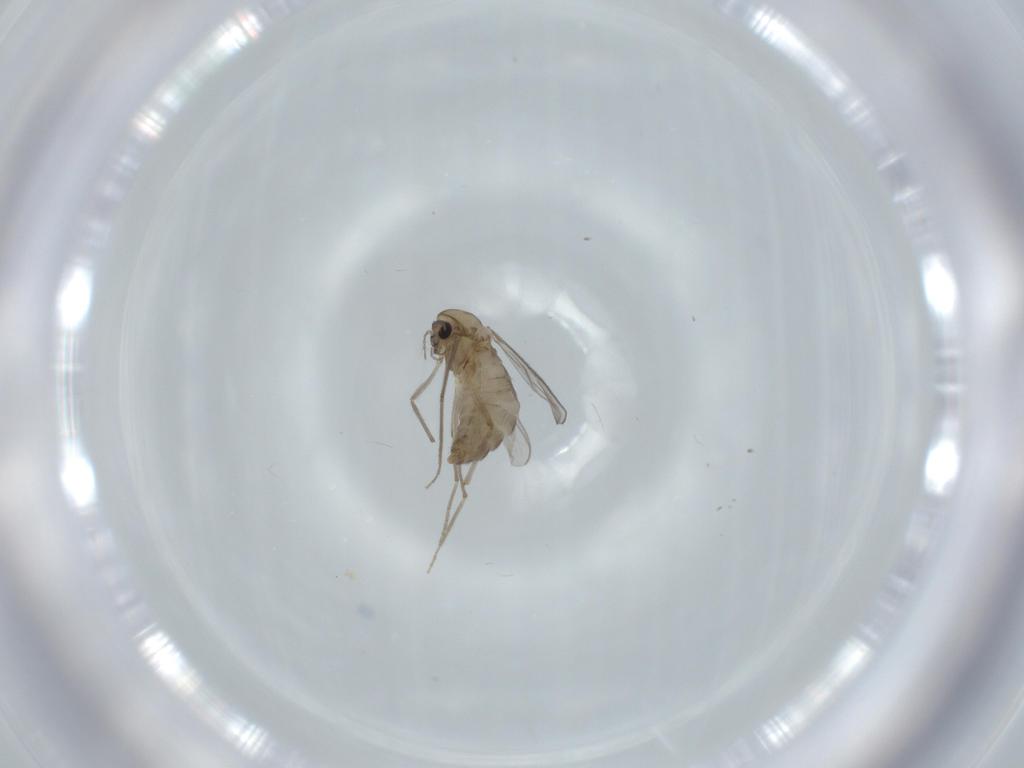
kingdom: Animalia
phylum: Arthropoda
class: Insecta
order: Diptera
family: Chironomidae
